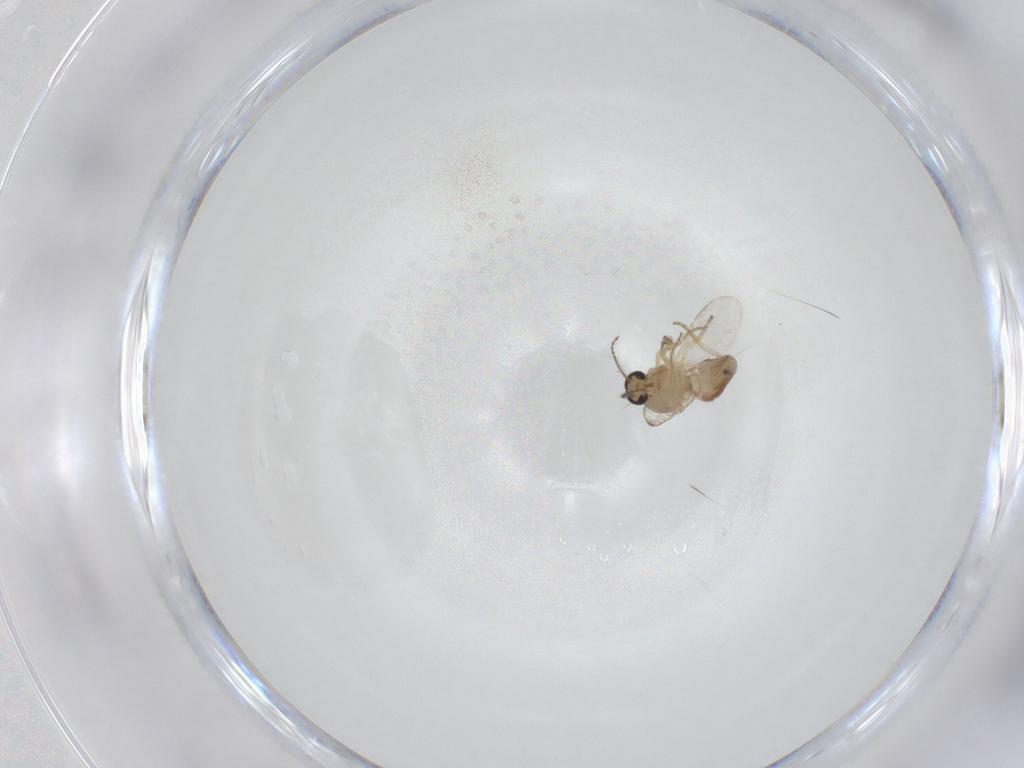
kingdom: Animalia
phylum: Arthropoda
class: Insecta
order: Diptera
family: Ceratopogonidae
